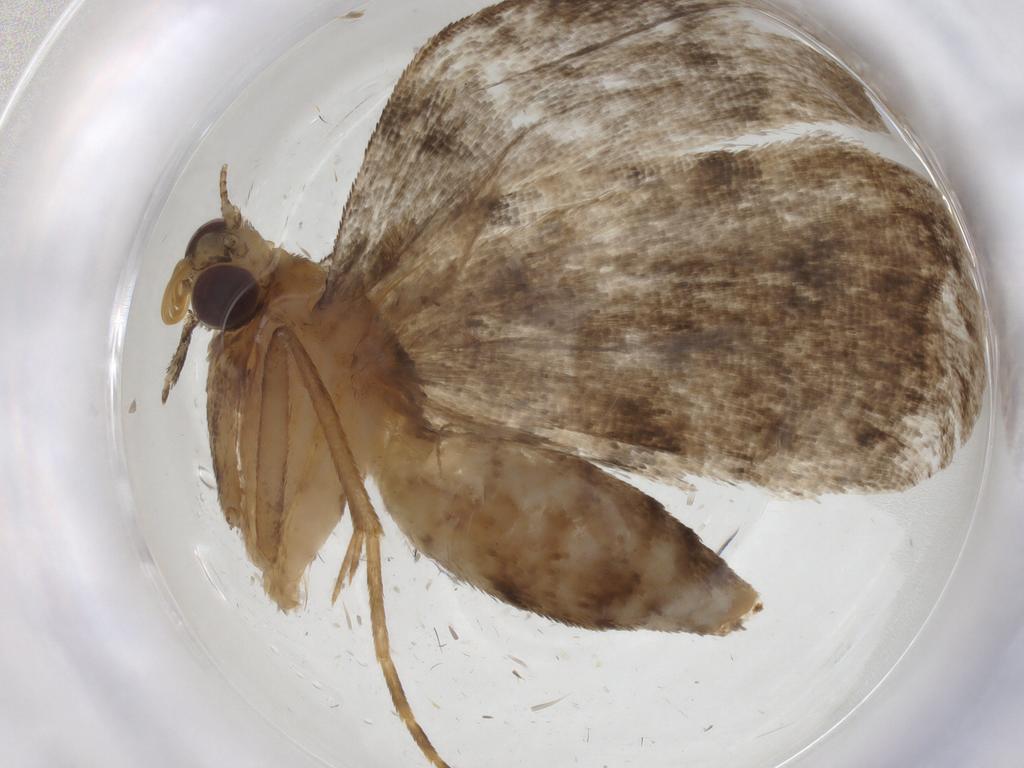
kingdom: Animalia
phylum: Arthropoda
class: Insecta
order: Lepidoptera
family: Erebidae
